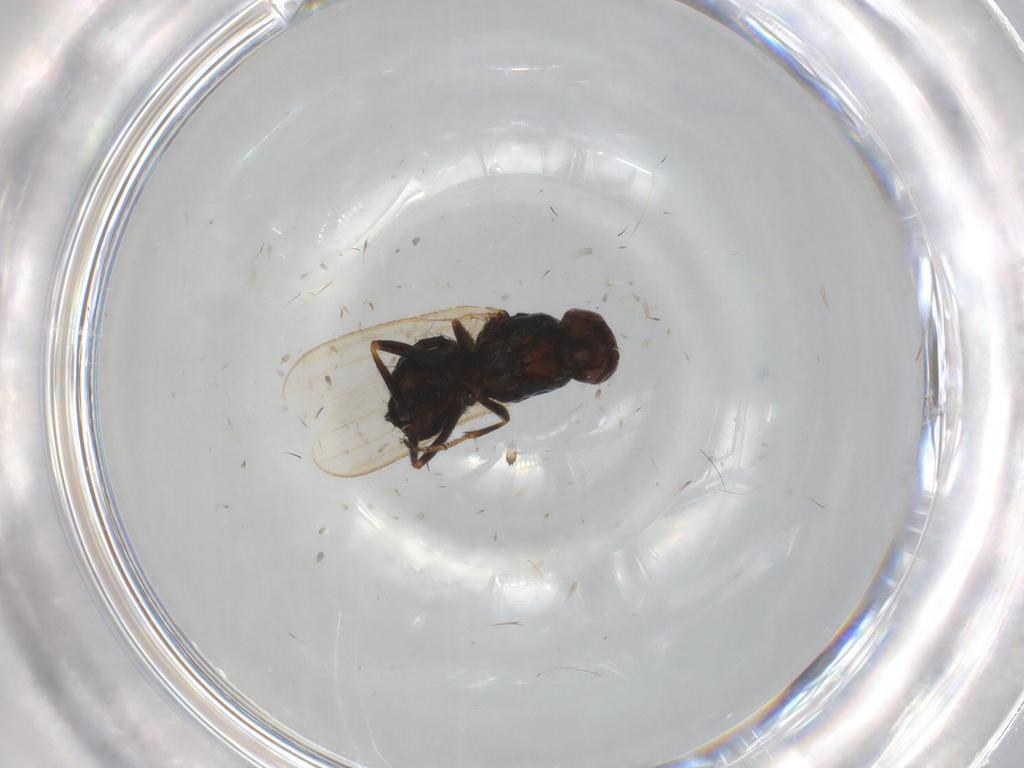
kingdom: Animalia
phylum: Arthropoda
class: Insecta
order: Diptera
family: Sphaeroceridae
